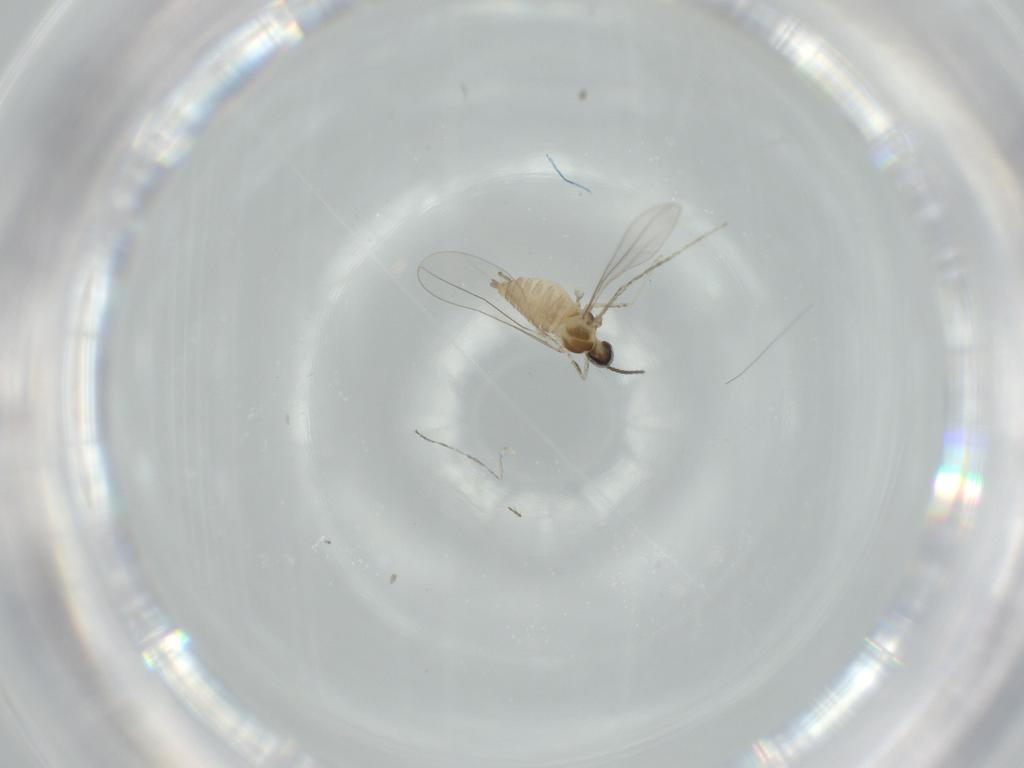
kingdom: Animalia
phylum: Arthropoda
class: Insecta
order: Diptera
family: Cecidomyiidae
